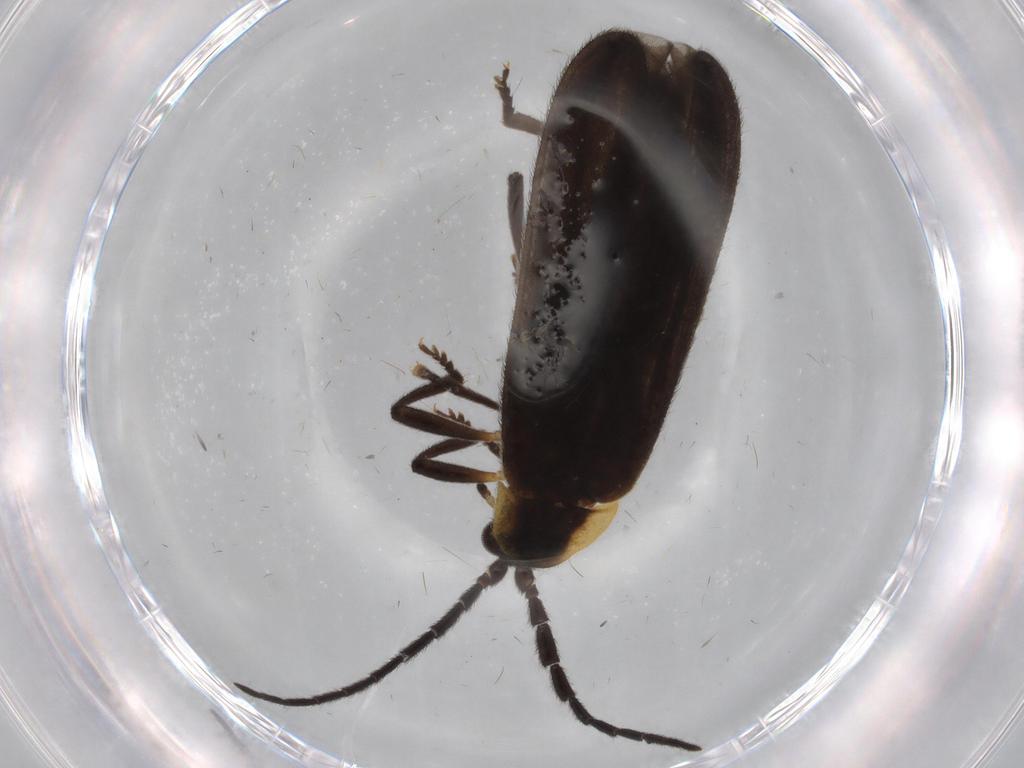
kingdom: Animalia
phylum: Arthropoda
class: Insecta
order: Coleoptera
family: Lycidae
